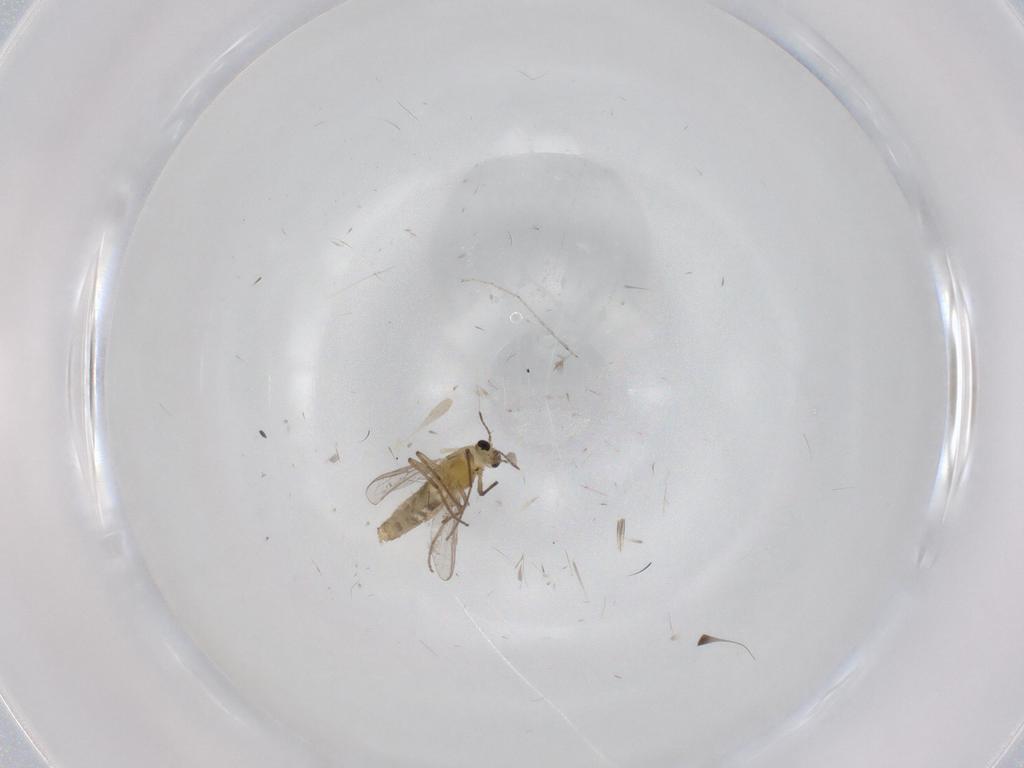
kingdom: Animalia
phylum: Arthropoda
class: Insecta
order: Diptera
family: Chironomidae
